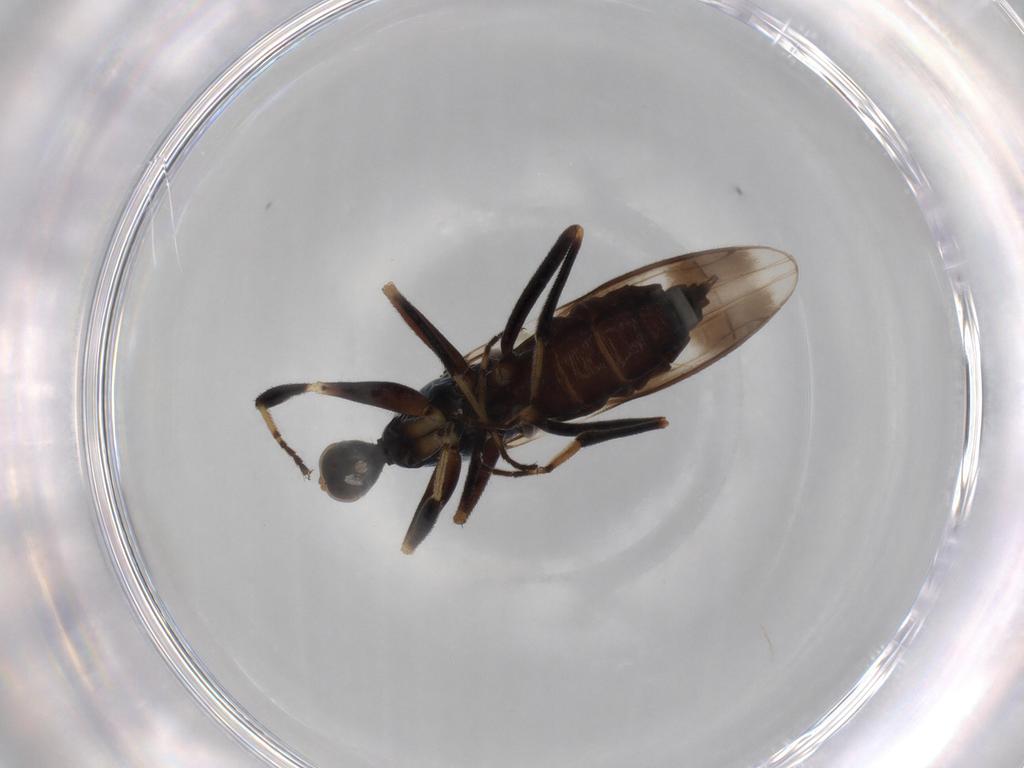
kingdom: Animalia
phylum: Arthropoda
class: Insecta
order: Diptera
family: Hybotidae
